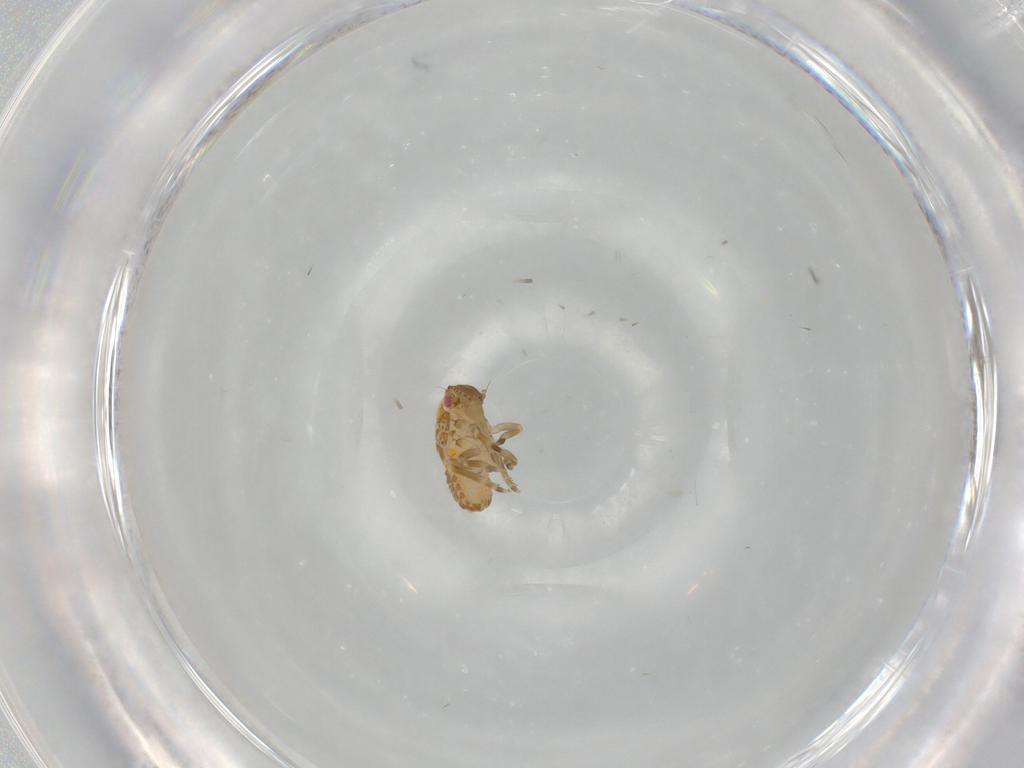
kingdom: Animalia
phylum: Arthropoda
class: Insecta
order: Hemiptera
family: Flatidae
